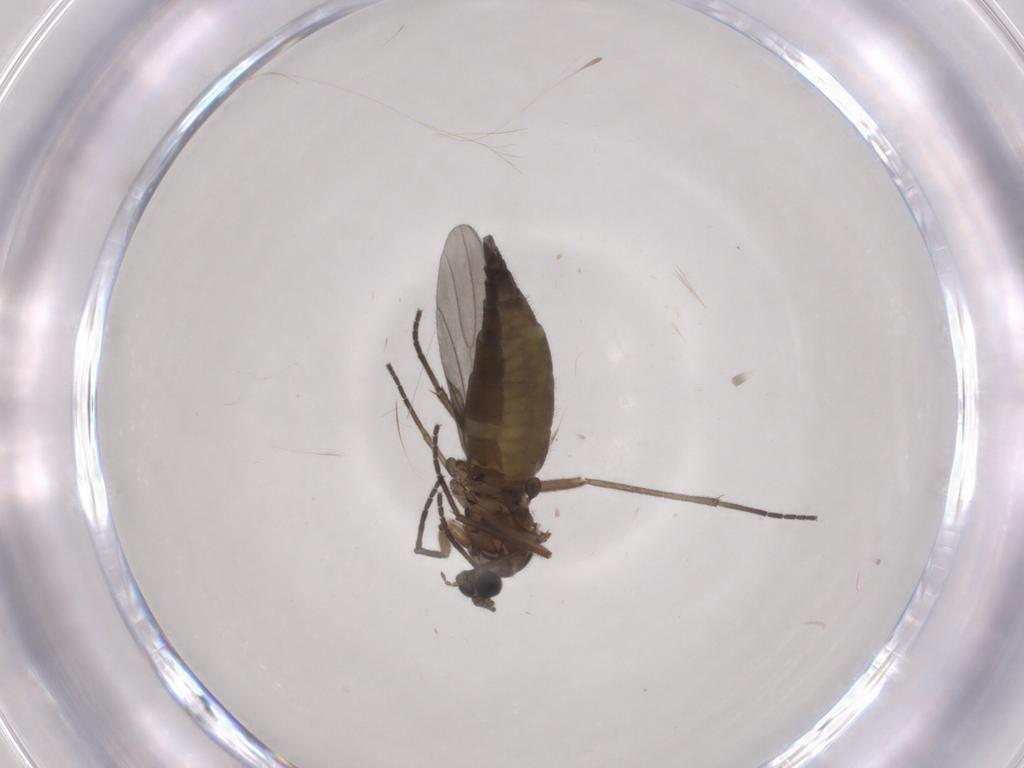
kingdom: Animalia
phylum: Arthropoda
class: Insecta
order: Diptera
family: Sciaridae
